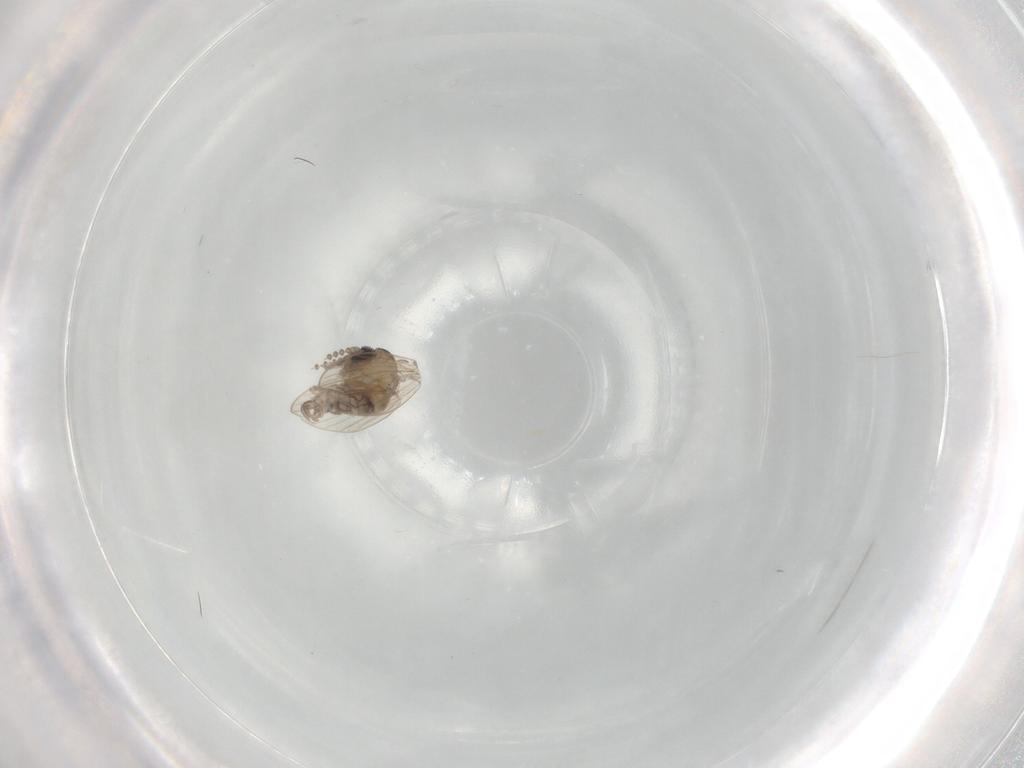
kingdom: Animalia
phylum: Arthropoda
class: Insecta
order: Diptera
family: Psychodidae
